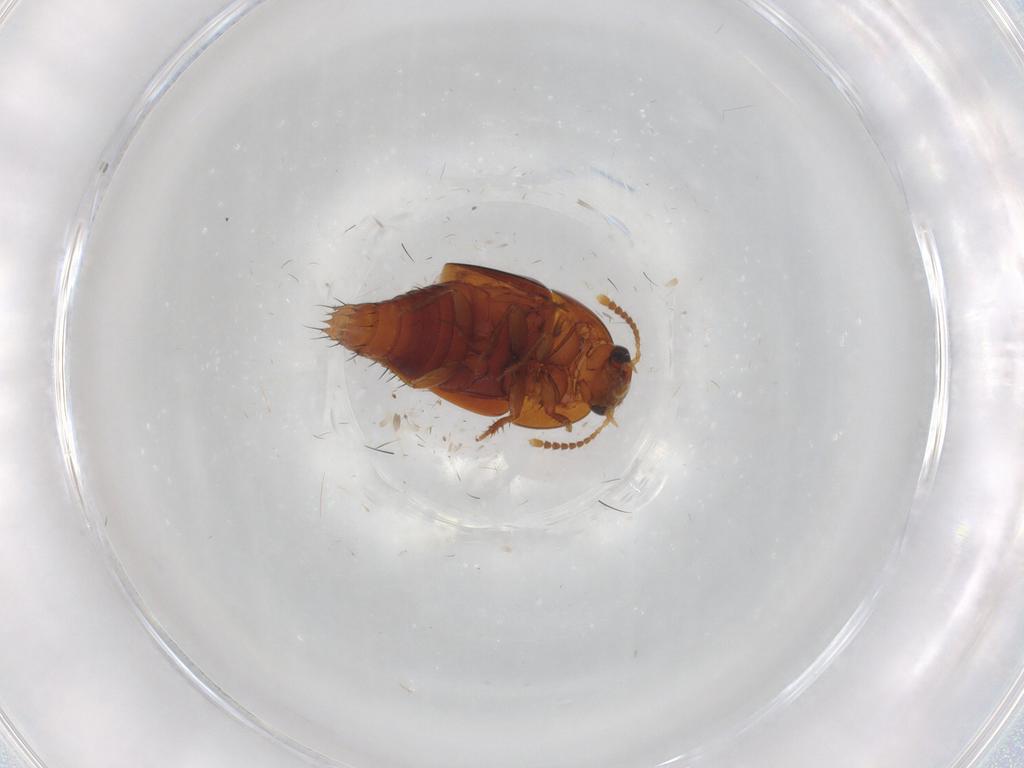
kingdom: Animalia
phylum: Arthropoda
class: Insecta
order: Coleoptera
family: Staphylinidae
